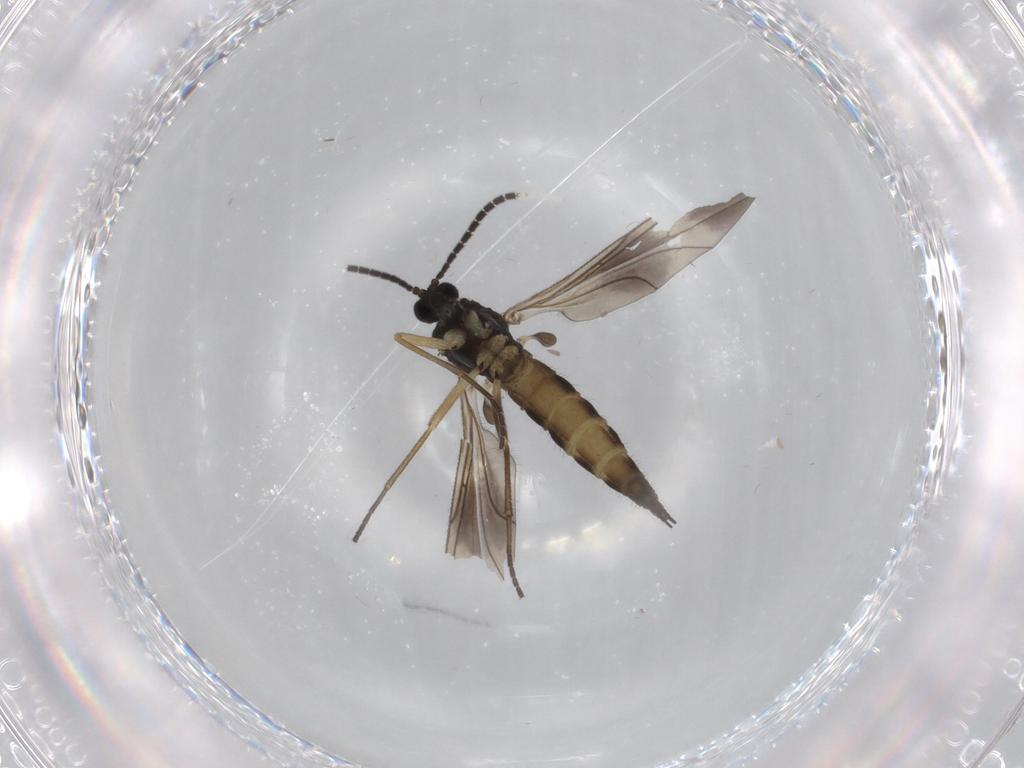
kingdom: Animalia
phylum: Arthropoda
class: Insecta
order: Diptera
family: Sciaridae
